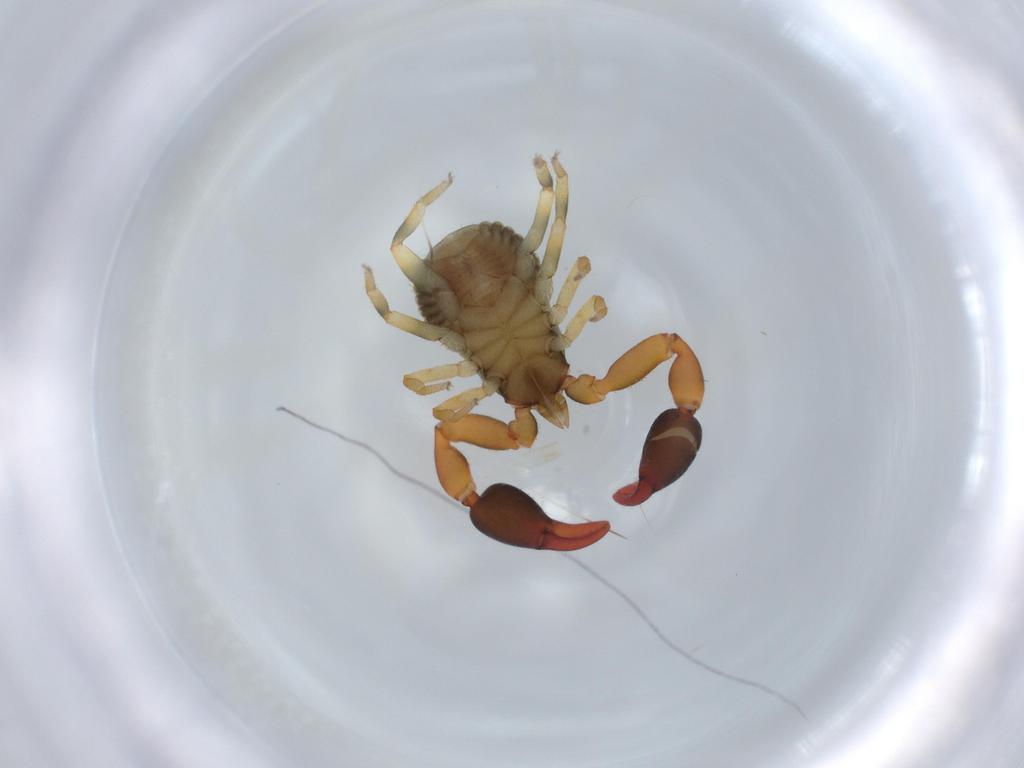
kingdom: Animalia
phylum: Arthropoda
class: Arachnida
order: Pseudoscorpiones
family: Chernetidae
